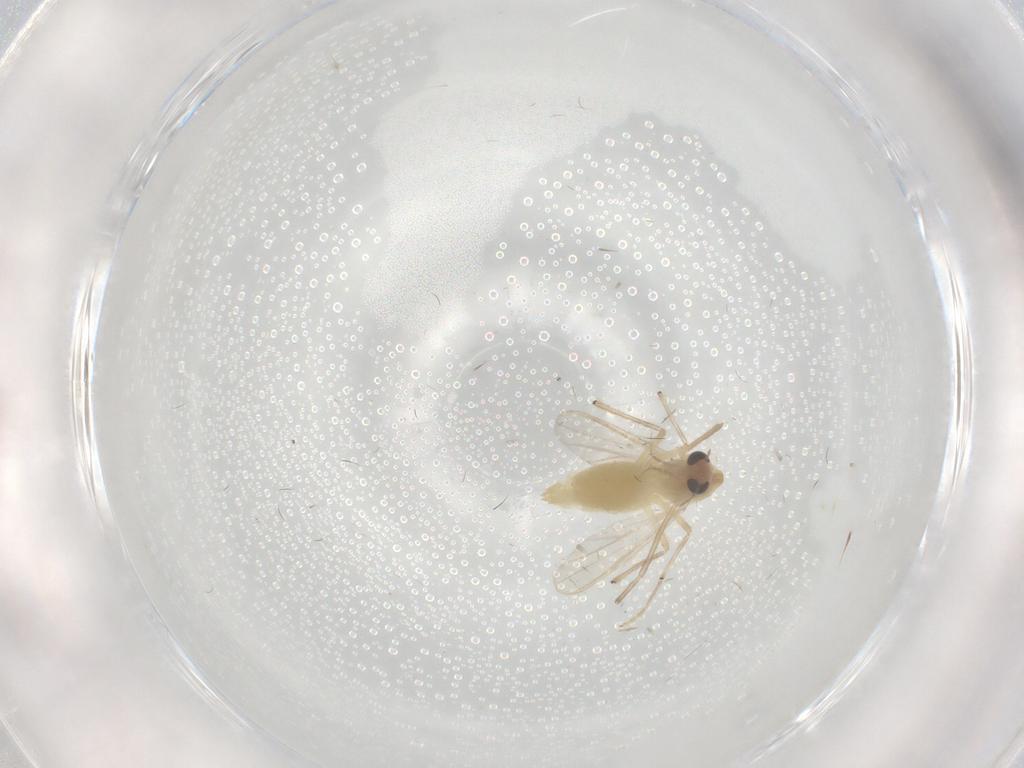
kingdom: Animalia
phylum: Arthropoda
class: Insecta
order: Diptera
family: Chironomidae
